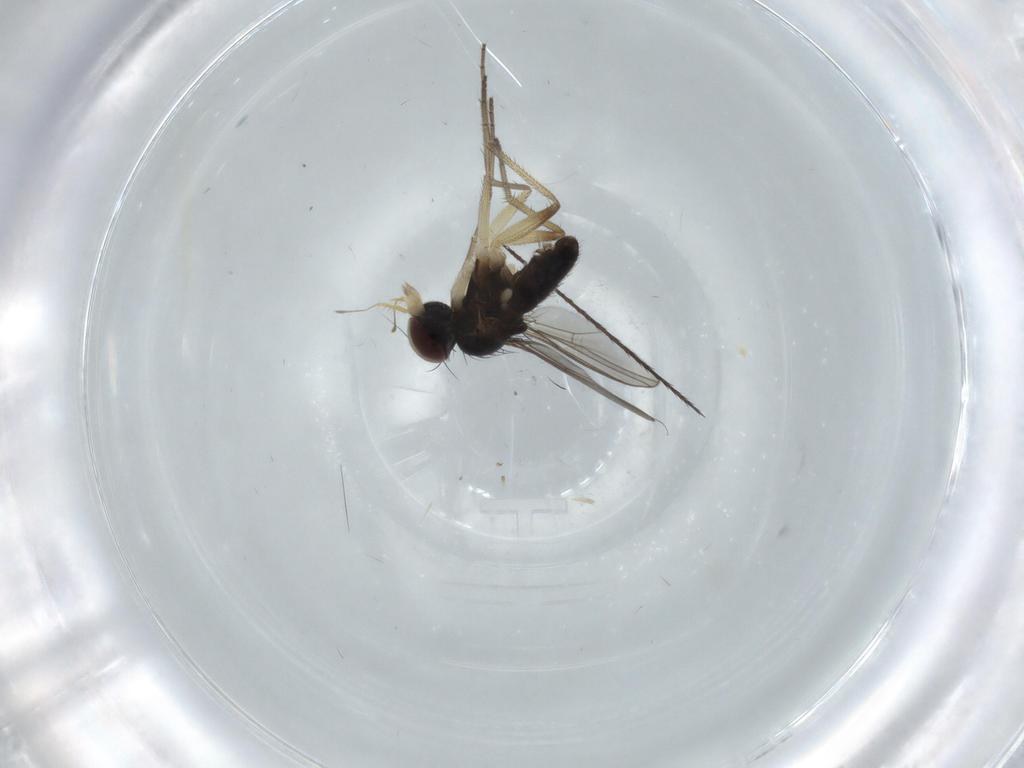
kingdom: Animalia
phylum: Arthropoda
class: Insecta
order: Diptera
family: Dolichopodidae
